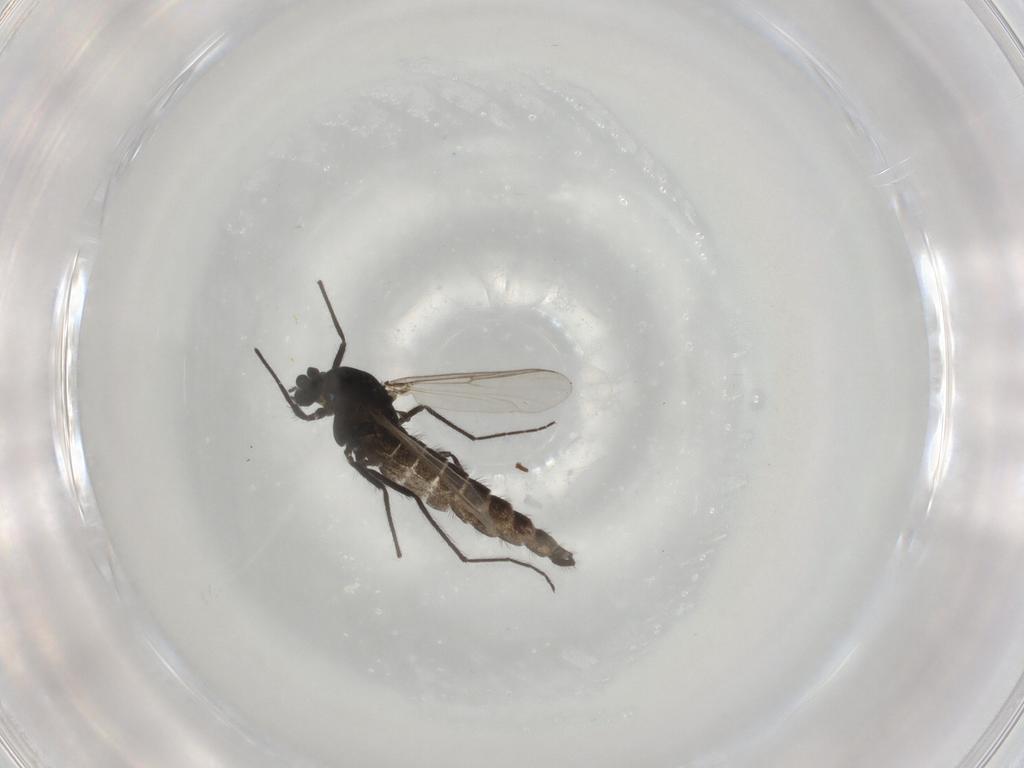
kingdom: Animalia
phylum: Arthropoda
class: Insecta
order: Diptera
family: Chironomidae
